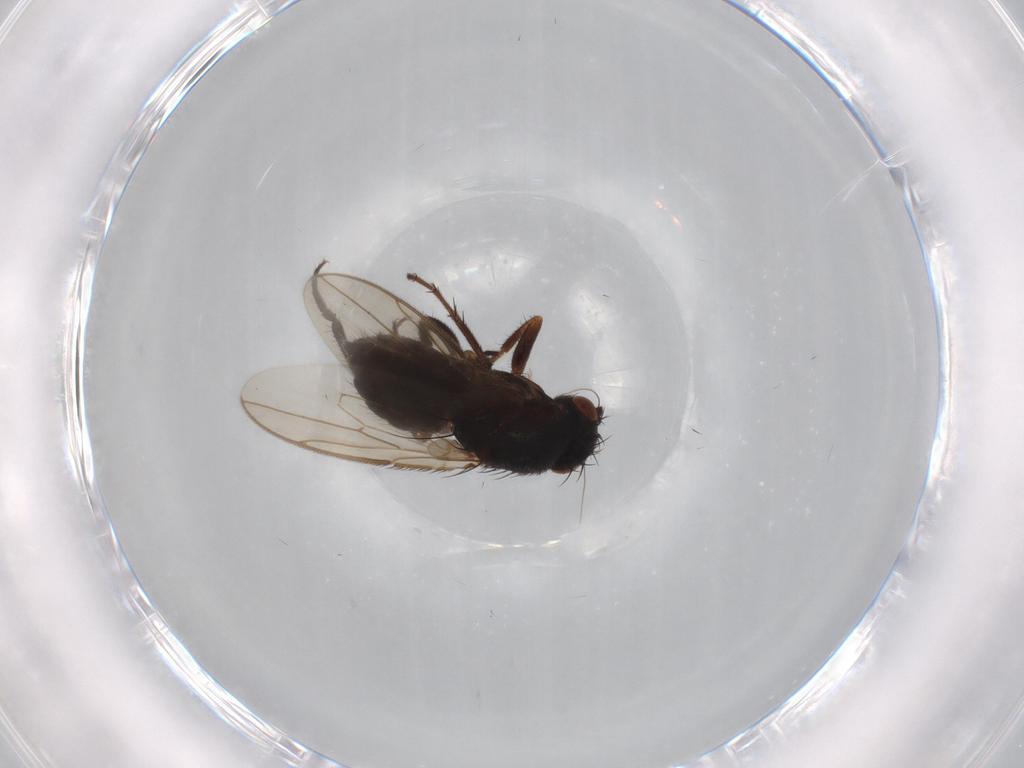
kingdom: Animalia
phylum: Arthropoda
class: Insecta
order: Diptera
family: Sphaeroceridae
